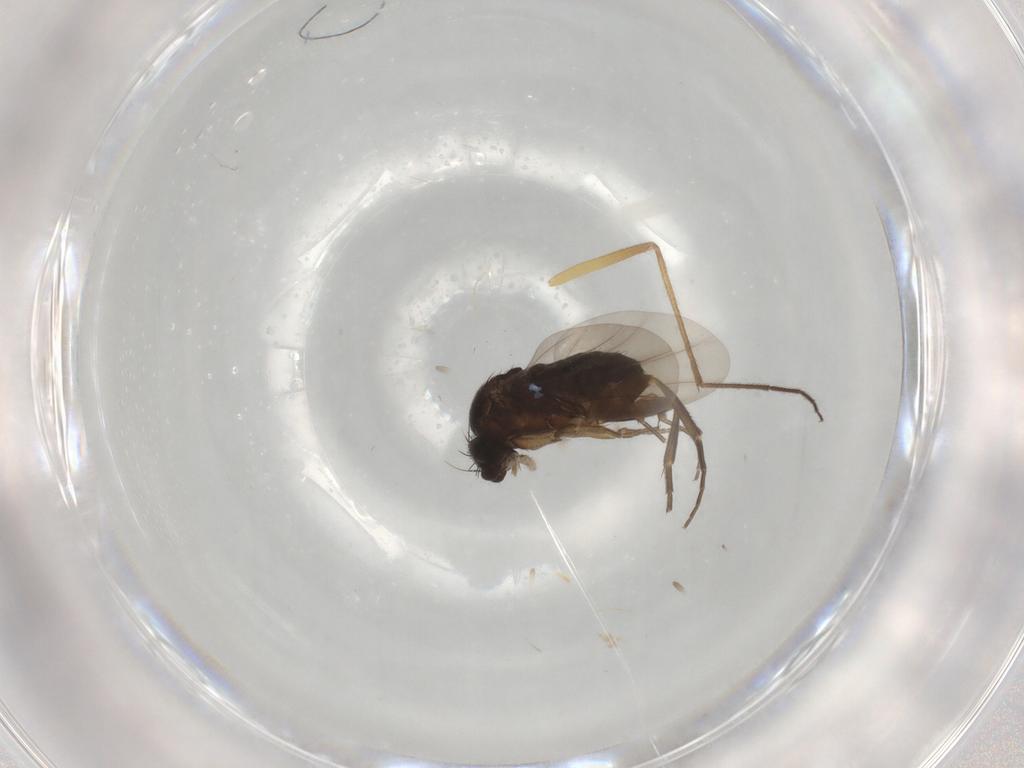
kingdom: Animalia
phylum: Arthropoda
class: Insecta
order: Diptera
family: Phoridae
